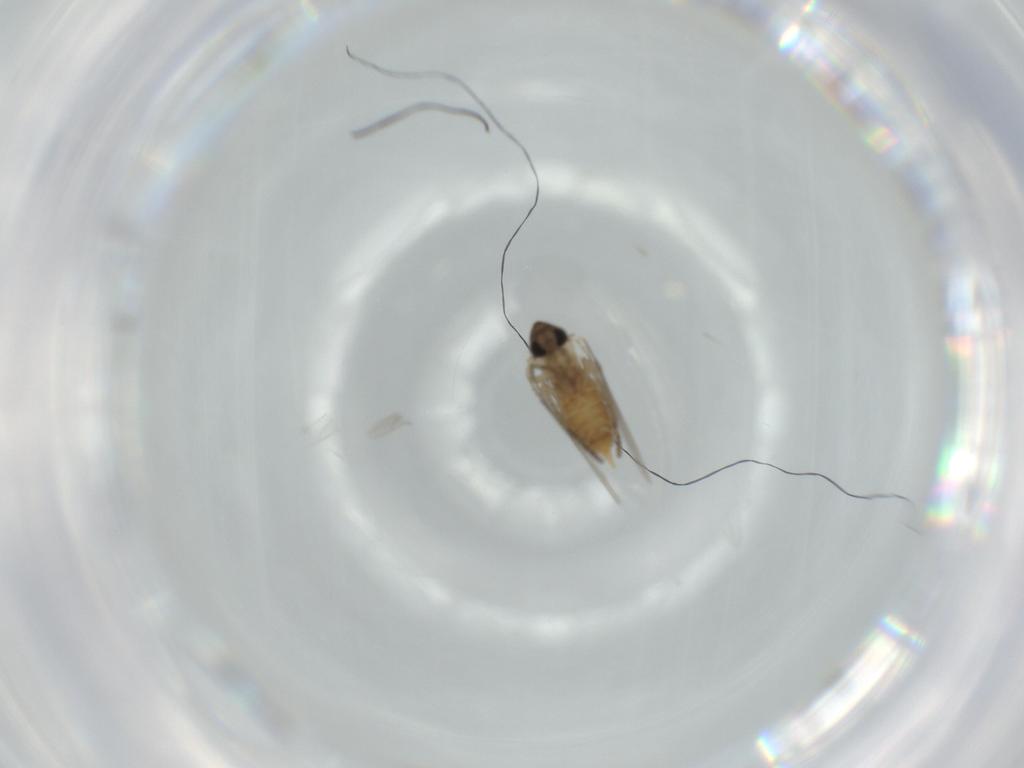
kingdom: Animalia
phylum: Arthropoda
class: Insecta
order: Diptera
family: Psychodidae
